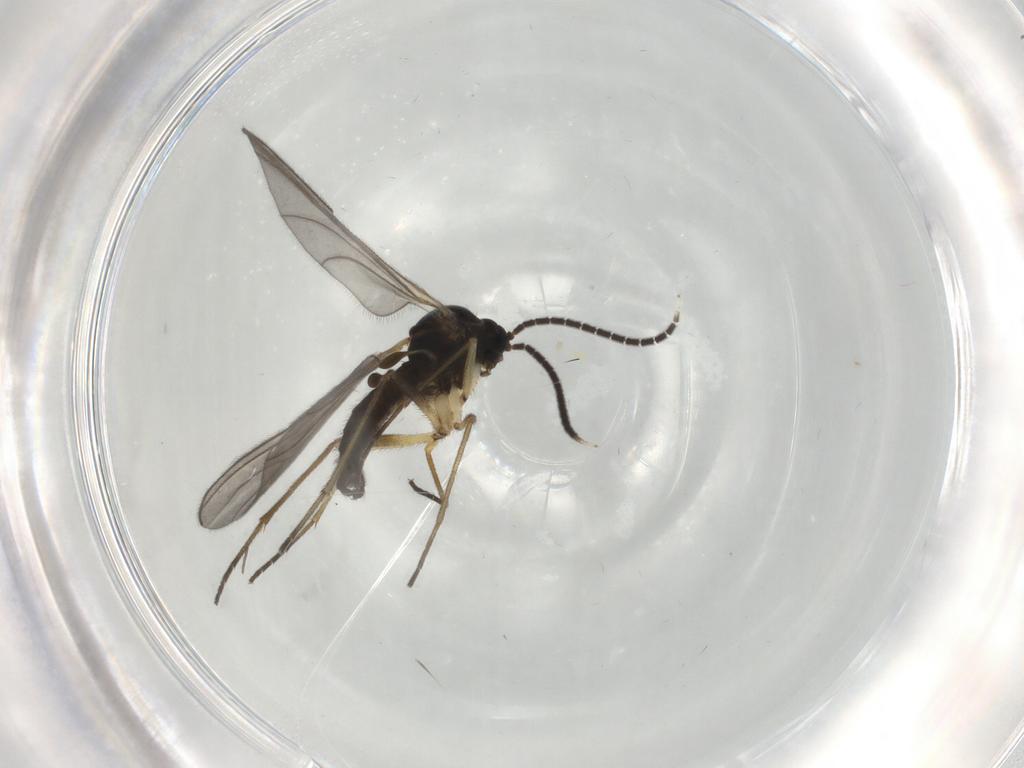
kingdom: Animalia
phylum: Arthropoda
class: Insecta
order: Diptera
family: Sciaridae
